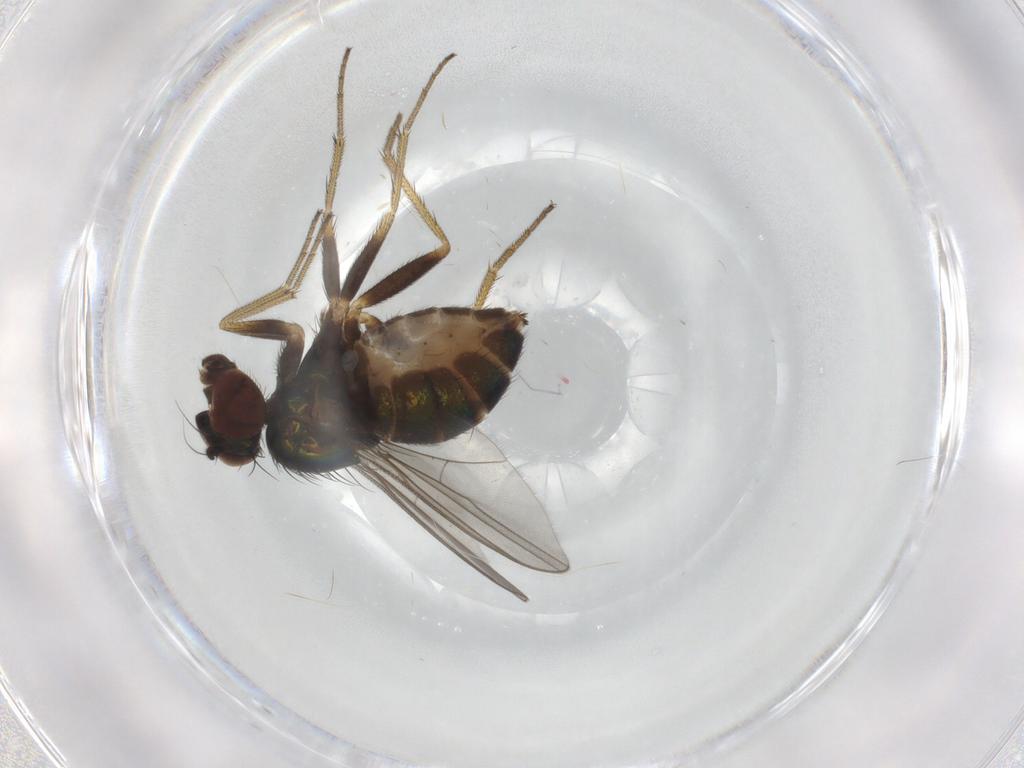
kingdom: Animalia
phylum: Arthropoda
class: Insecta
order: Diptera
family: Dolichopodidae
